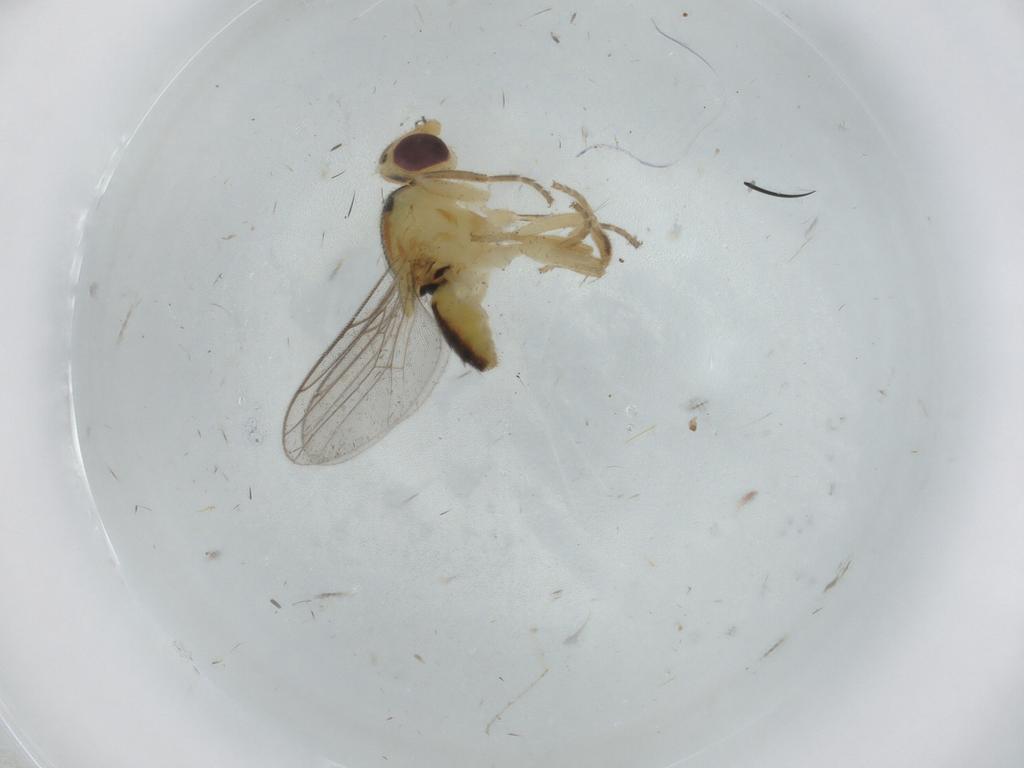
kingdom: Animalia
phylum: Arthropoda
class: Insecta
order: Diptera
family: Chloropidae
